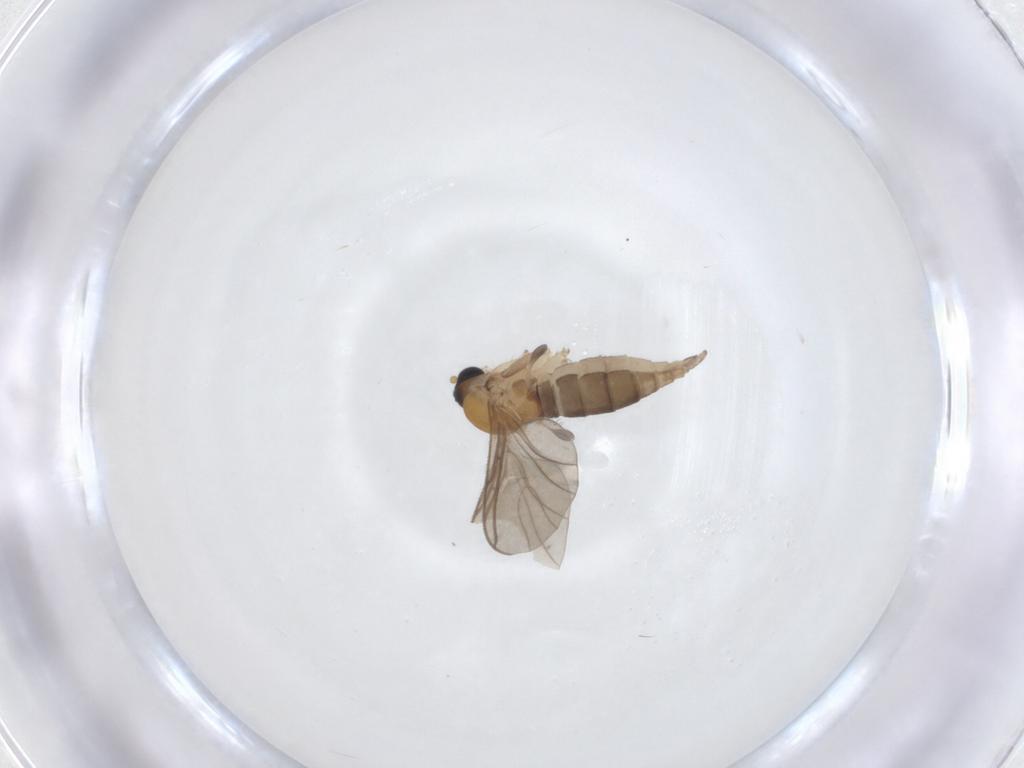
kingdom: Animalia
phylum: Arthropoda
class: Insecta
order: Diptera
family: Sciaridae
